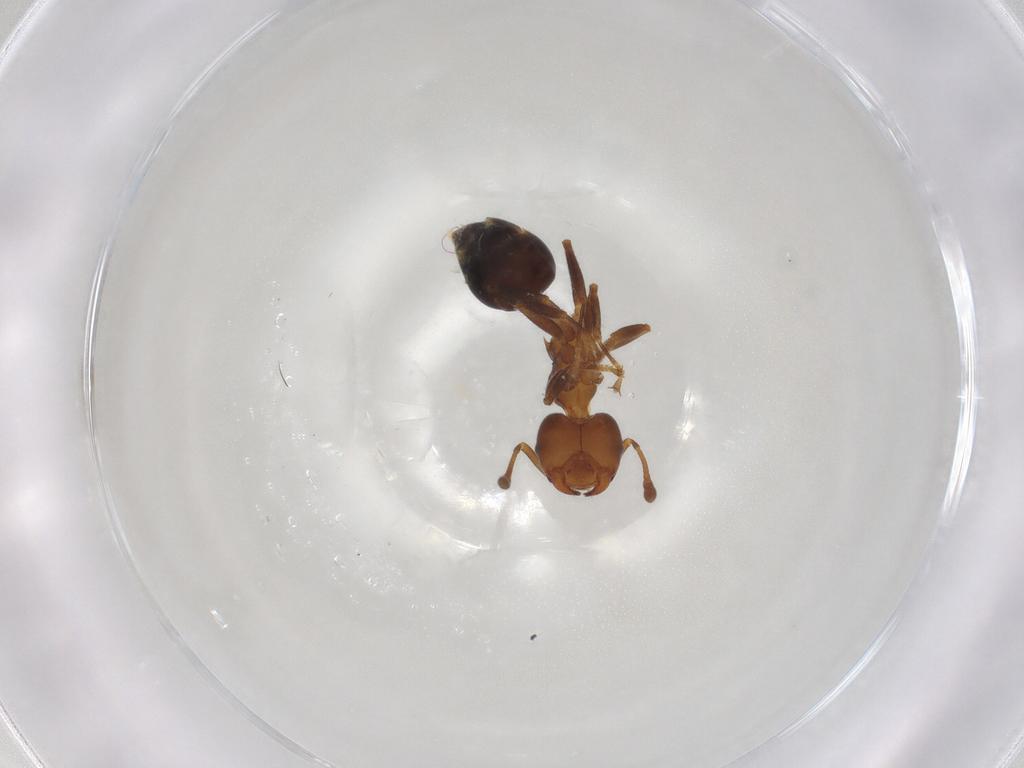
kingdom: Animalia
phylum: Arthropoda
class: Insecta
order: Hymenoptera
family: Formicidae
